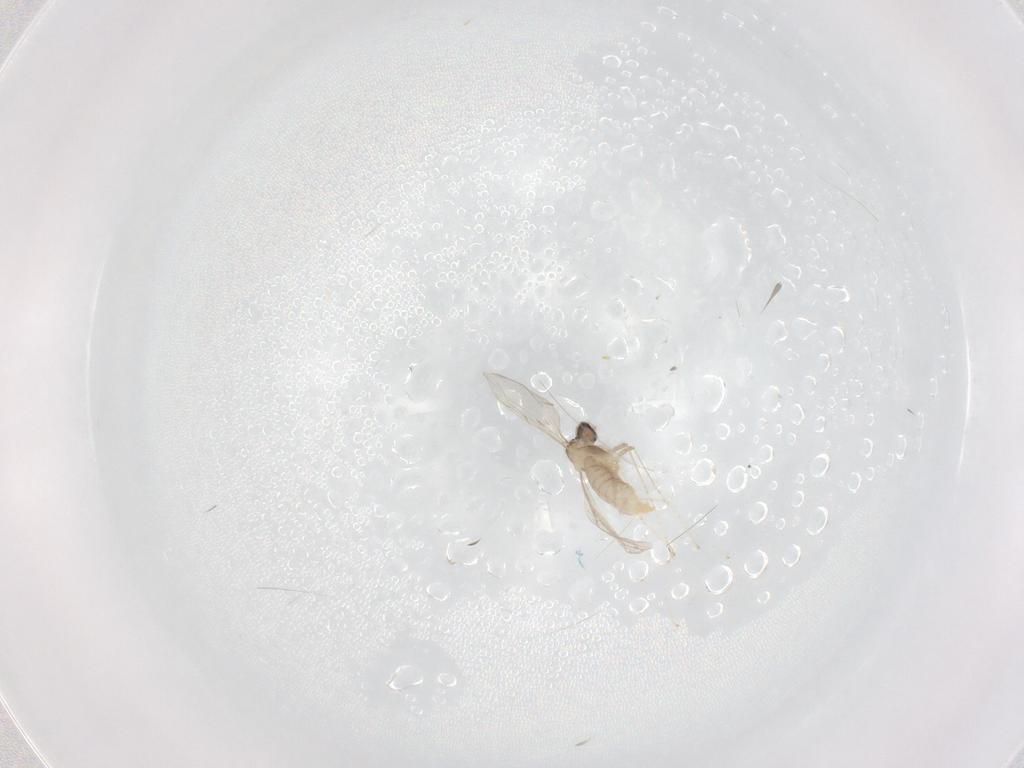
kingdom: Animalia
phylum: Arthropoda
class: Insecta
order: Diptera
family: Cecidomyiidae
